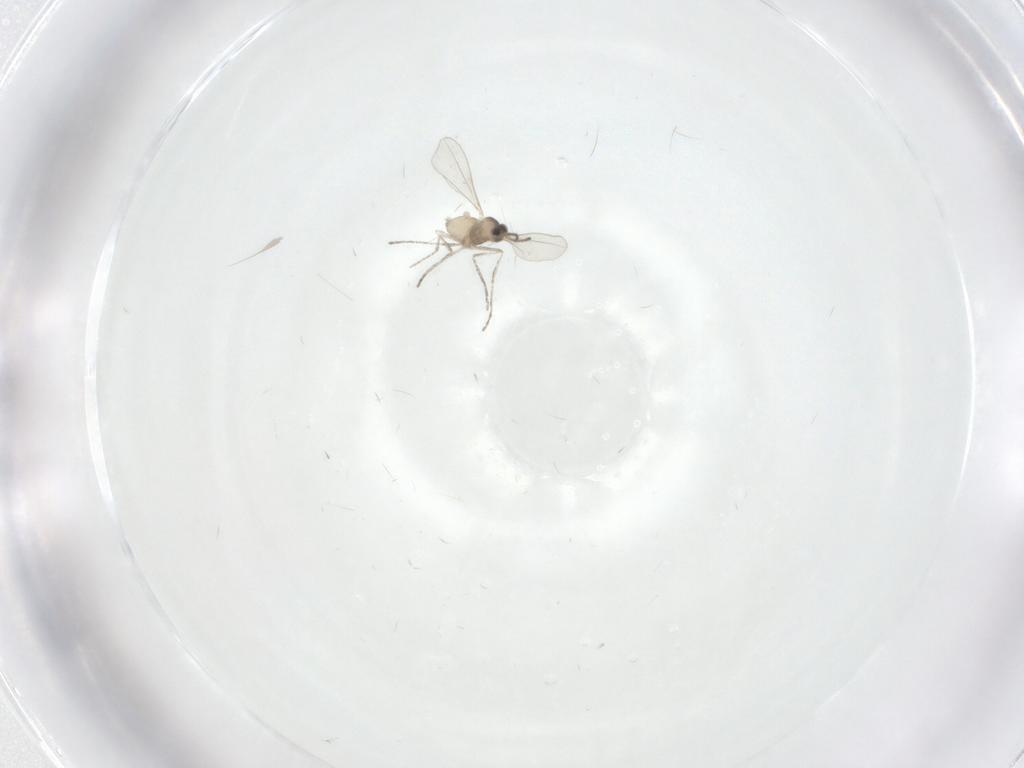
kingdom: Animalia
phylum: Arthropoda
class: Insecta
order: Diptera
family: Cecidomyiidae
